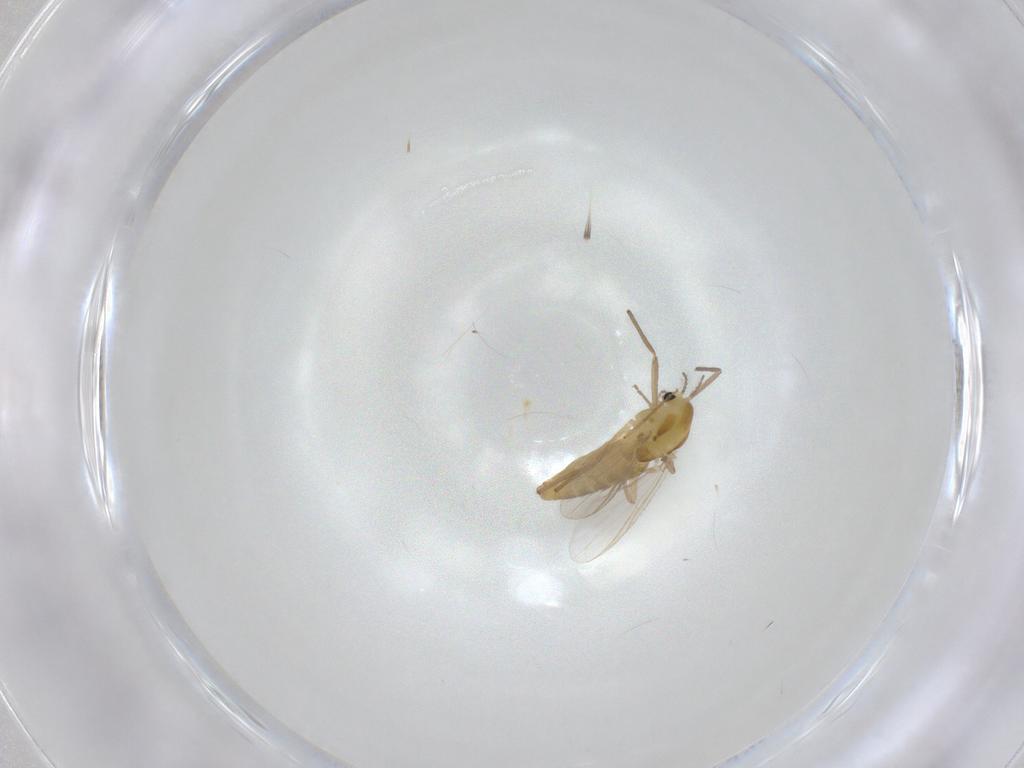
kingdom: Animalia
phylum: Arthropoda
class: Insecta
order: Diptera
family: Chironomidae
